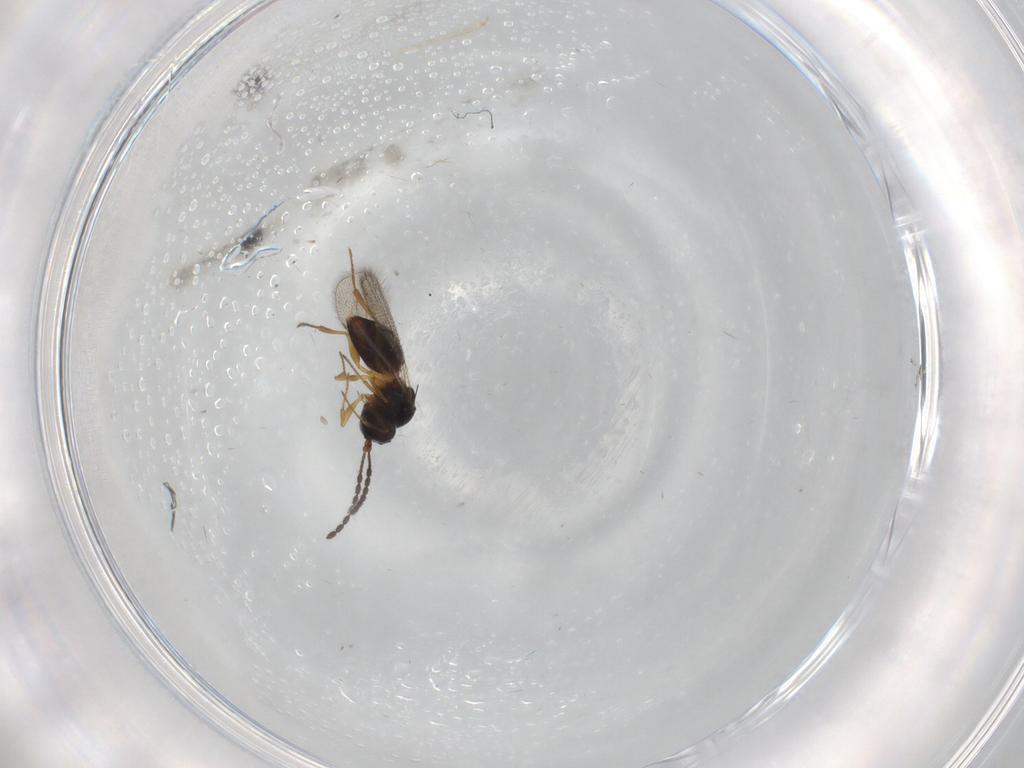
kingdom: Animalia
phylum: Arthropoda
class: Insecta
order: Hymenoptera
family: Figitidae
